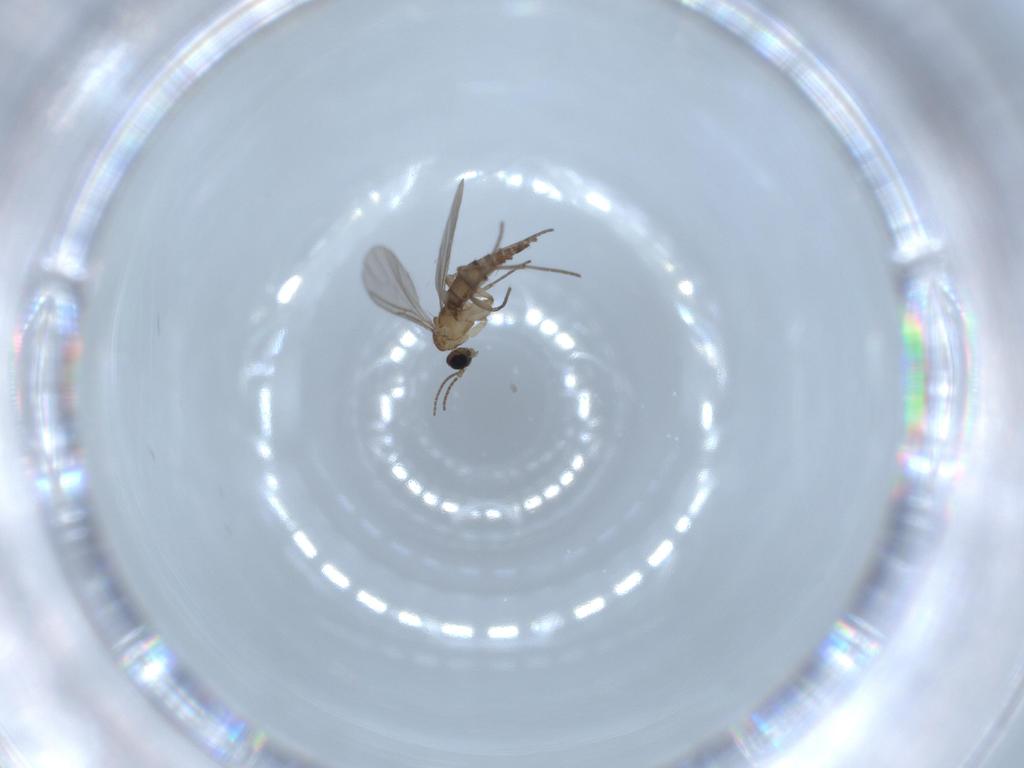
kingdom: Animalia
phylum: Arthropoda
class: Insecta
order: Diptera
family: Sciaridae
